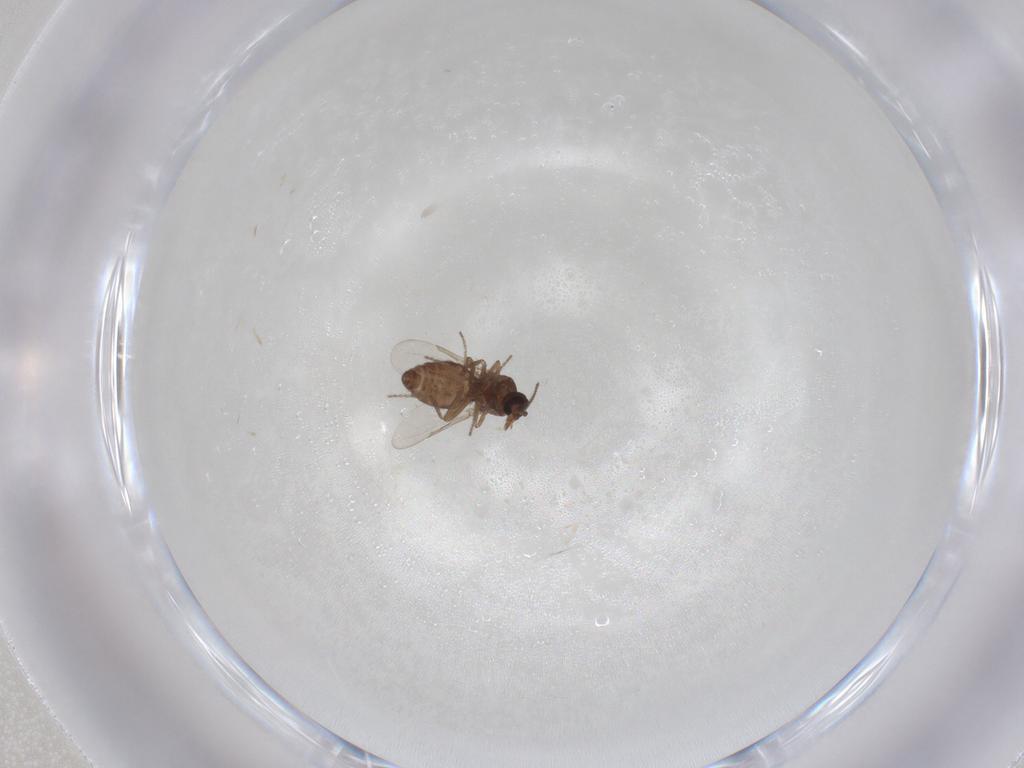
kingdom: Animalia
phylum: Arthropoda
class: Insecta
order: Diptera
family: Ceratopogonidae
